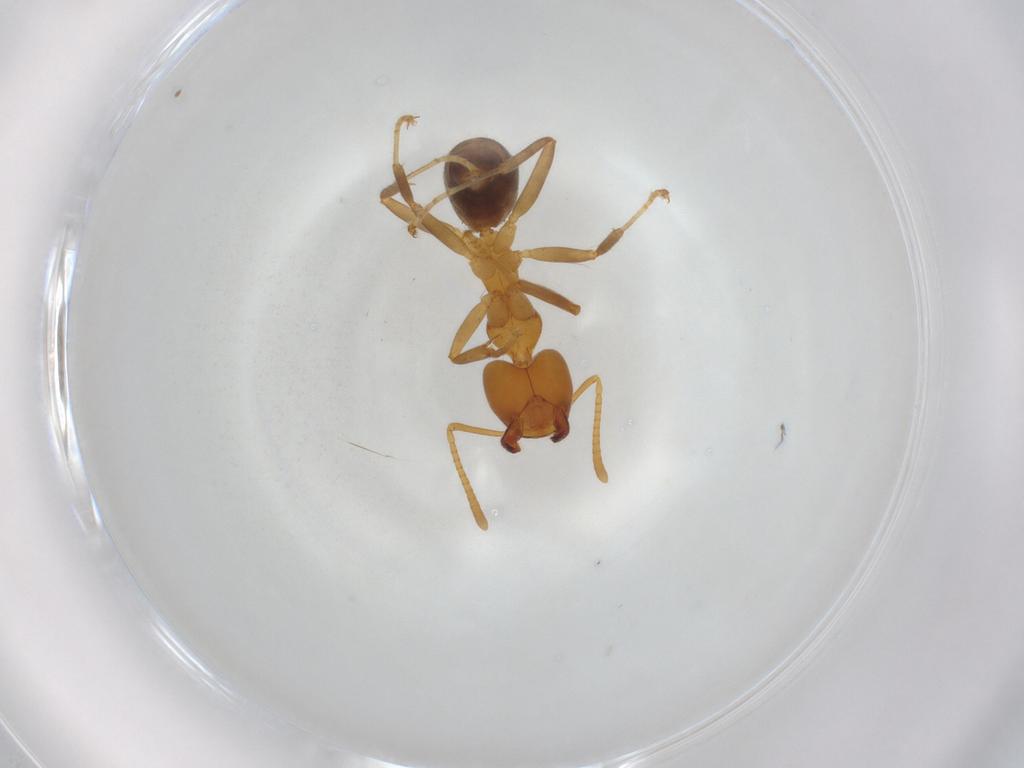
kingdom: Animalia
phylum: Arthropoda
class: Insecta
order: Hymenoptera
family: Formicidae
